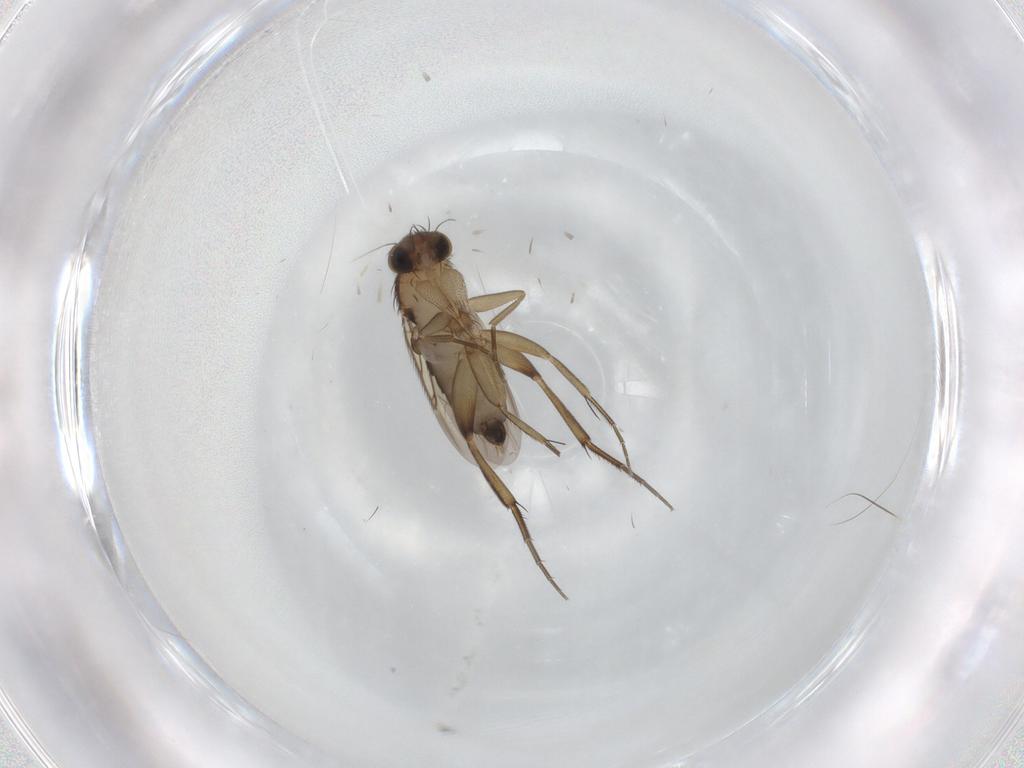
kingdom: Animalia
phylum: Arthropoda
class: Insecta
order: Diptera
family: Phoridae
